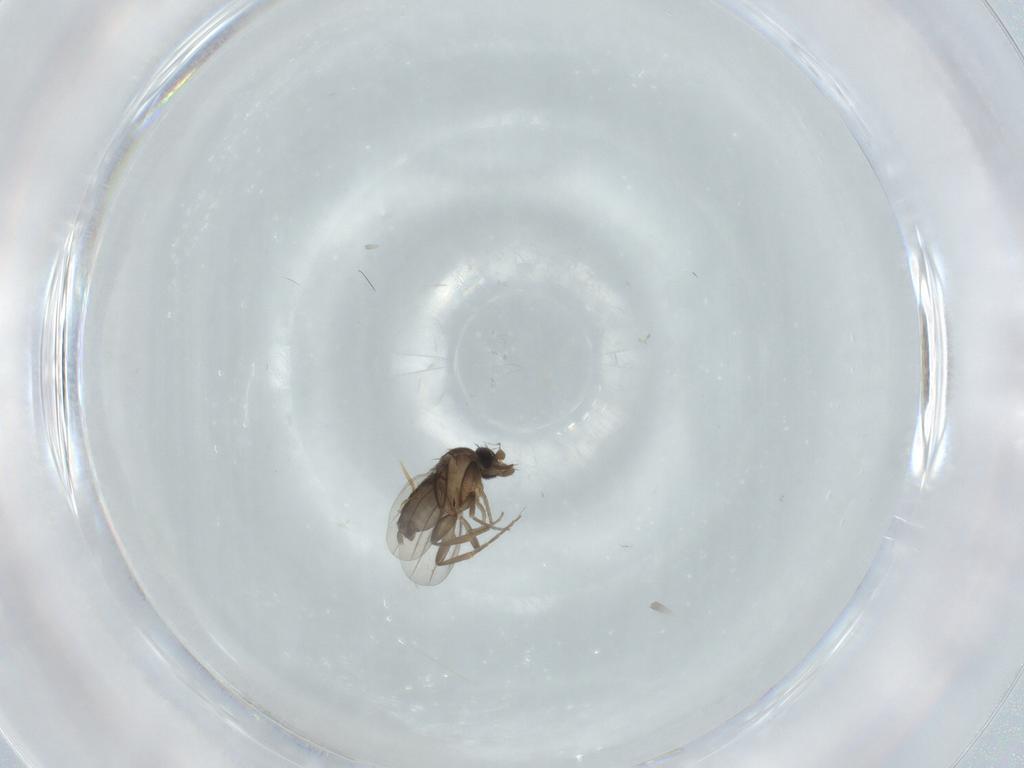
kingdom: Animalia
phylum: Arthropoda
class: Insecta
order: Diptera
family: Phoridae
